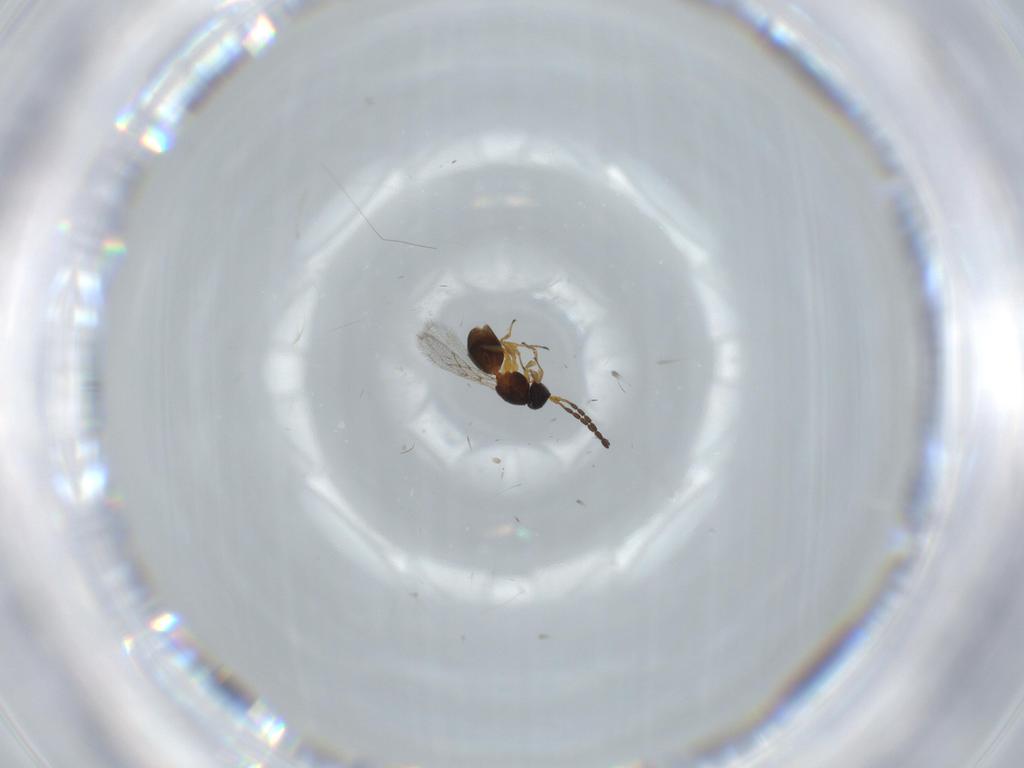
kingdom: Animalia
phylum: Arthropoda
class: Insecta
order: Hymenoptera
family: Figitidae
